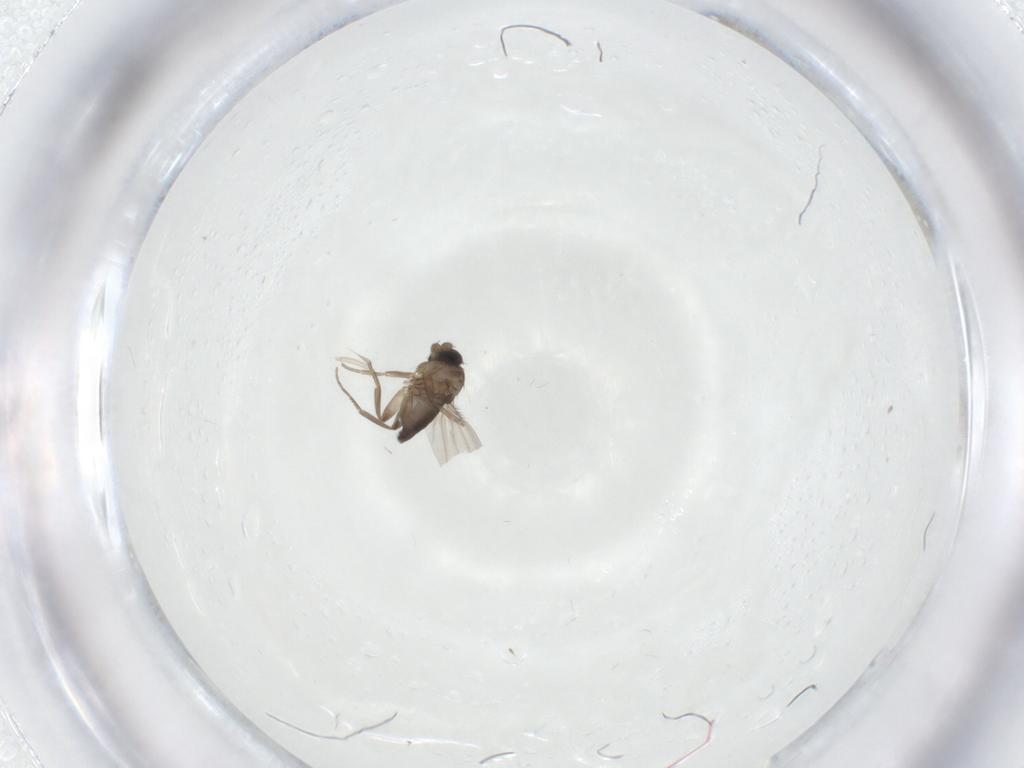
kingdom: Animalia
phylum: Arthropoda
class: Insecta
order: Diptera
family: Phoridae
